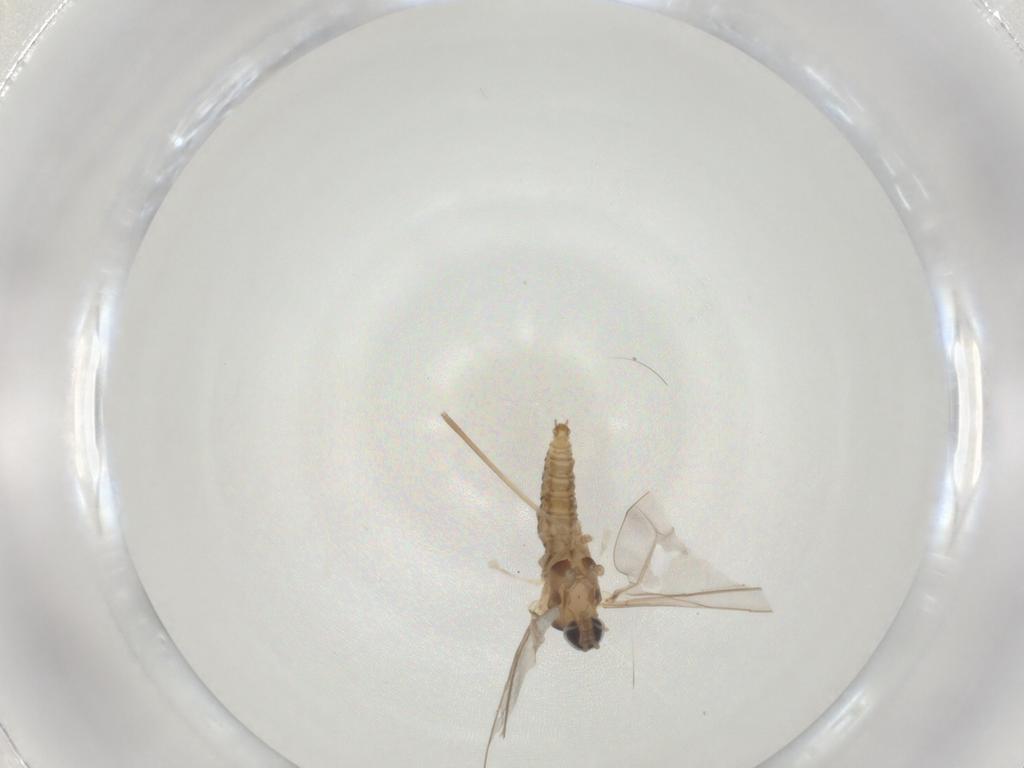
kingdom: Animalia
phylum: Arthropoda
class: Insecta
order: Diptera
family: Cecidomyiidae
